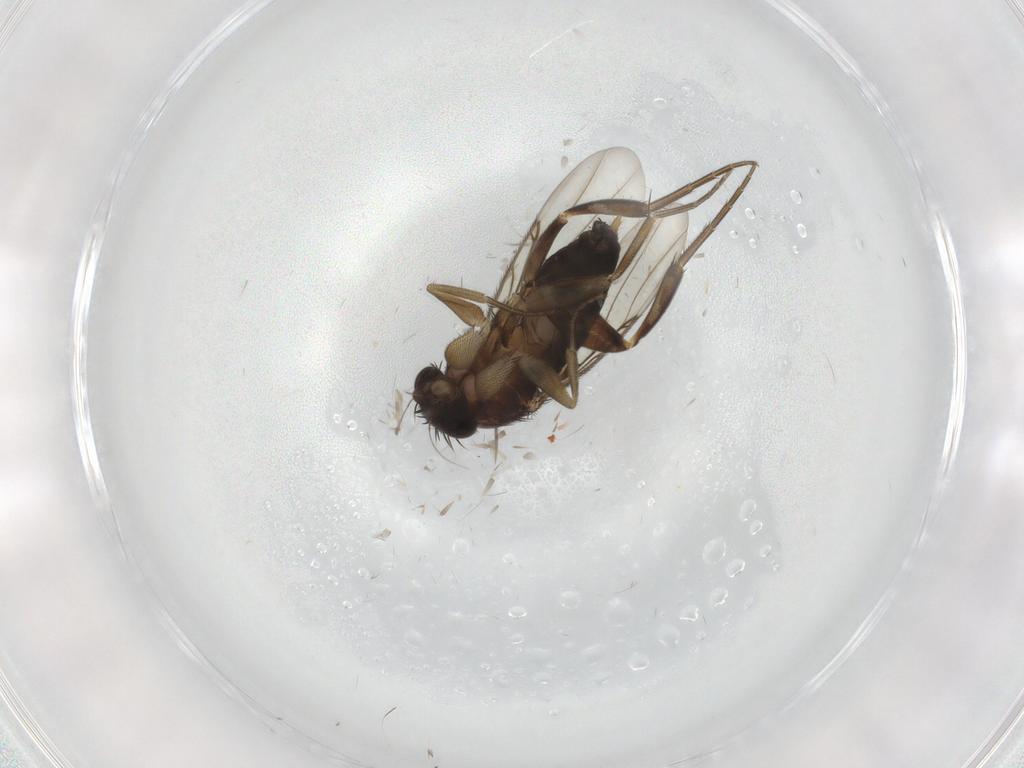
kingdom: Animalia
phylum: Arthropoda
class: Insecta
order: Diptera
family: Phoridae
